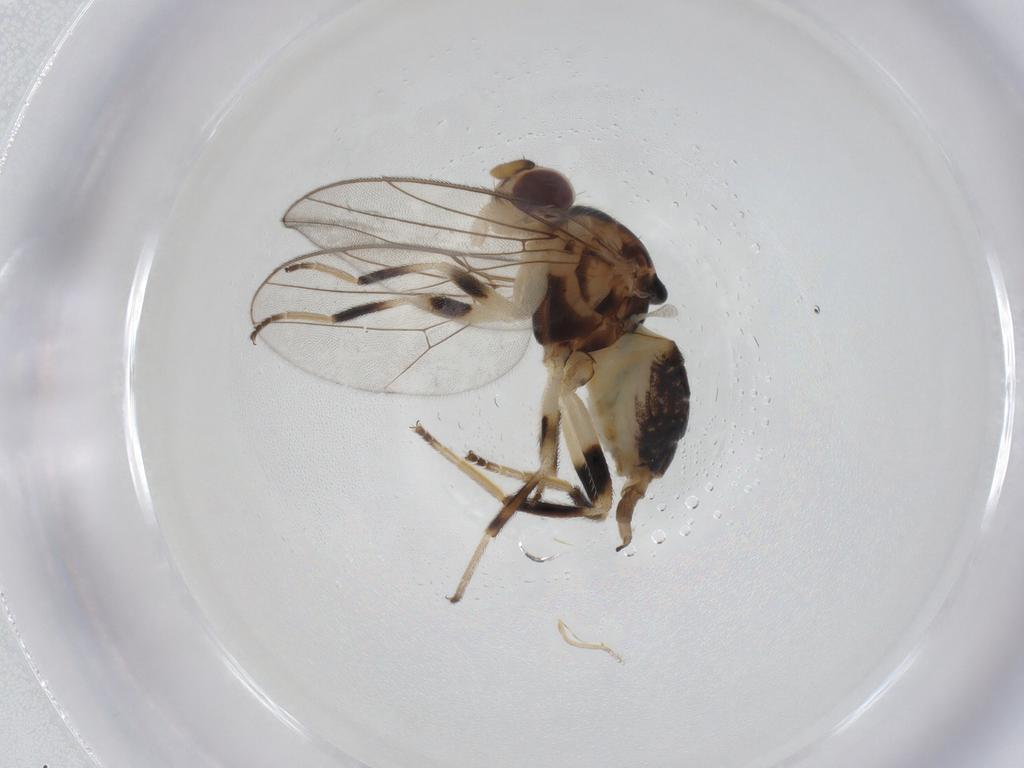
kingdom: Animalia
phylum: Arthropoda
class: Insecta
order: Diptera
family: Chloropidae
